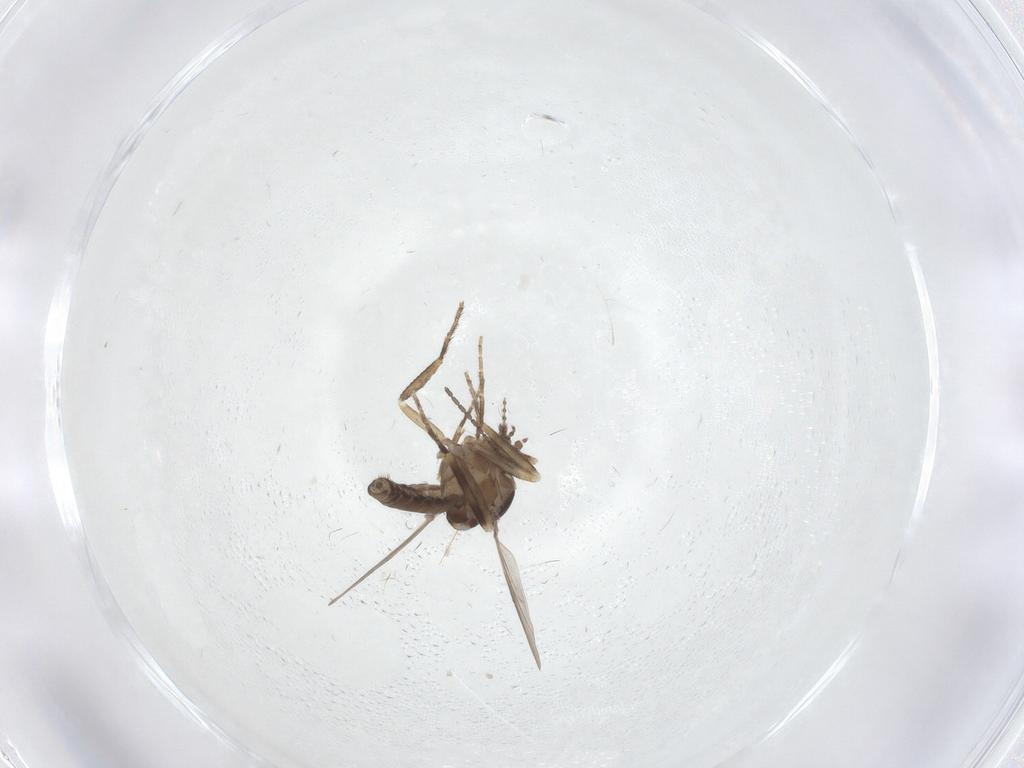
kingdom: Animalia
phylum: Arthropoda
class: Insecta
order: Diptera
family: Ceratopogonidae
